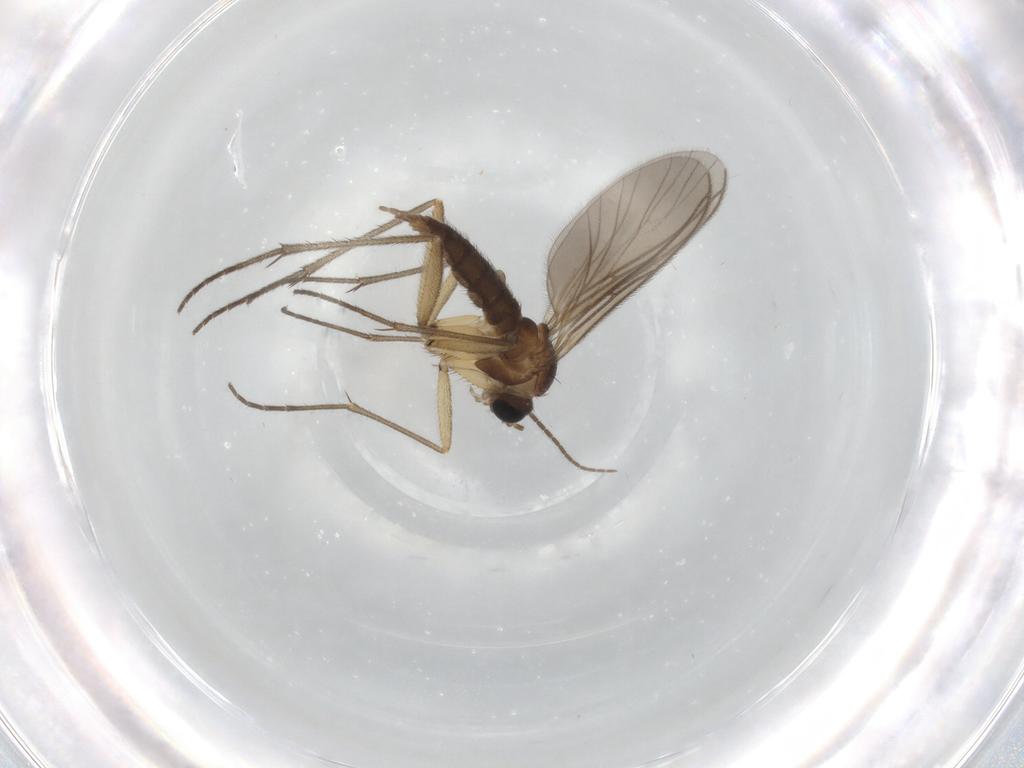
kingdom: Animalia
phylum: Arthropoda
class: Insecta
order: Diptera
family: Sciaridae
